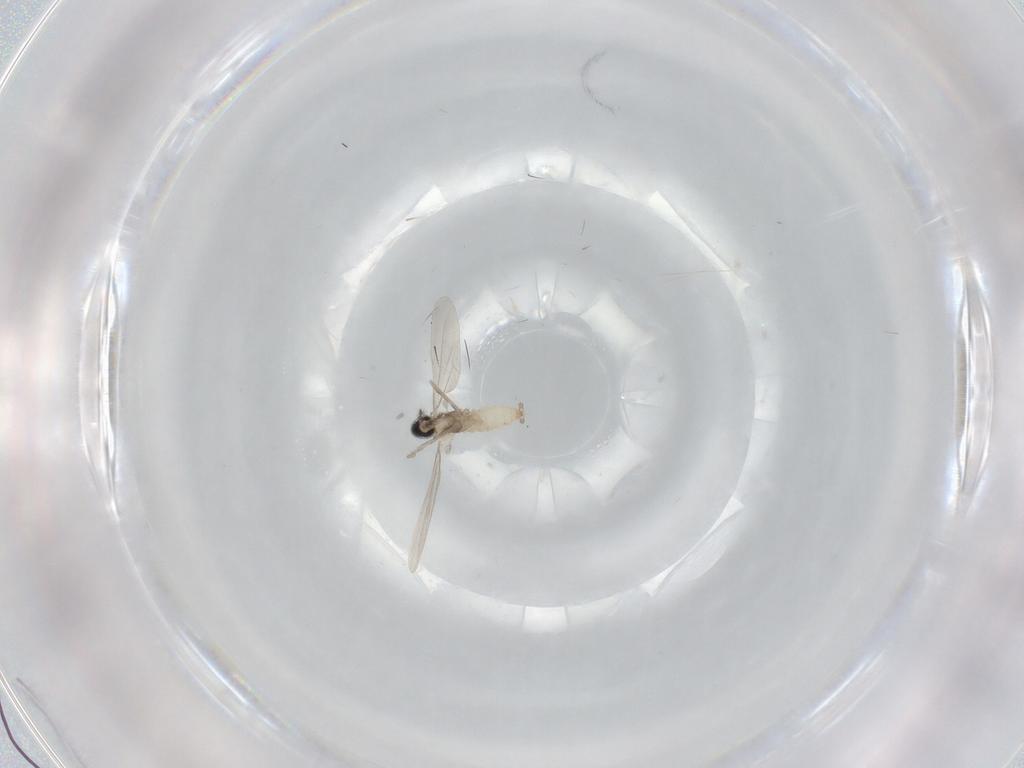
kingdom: Animalia
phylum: Arthropoda
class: Insecta
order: Diptera
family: Cecidomyiidae
